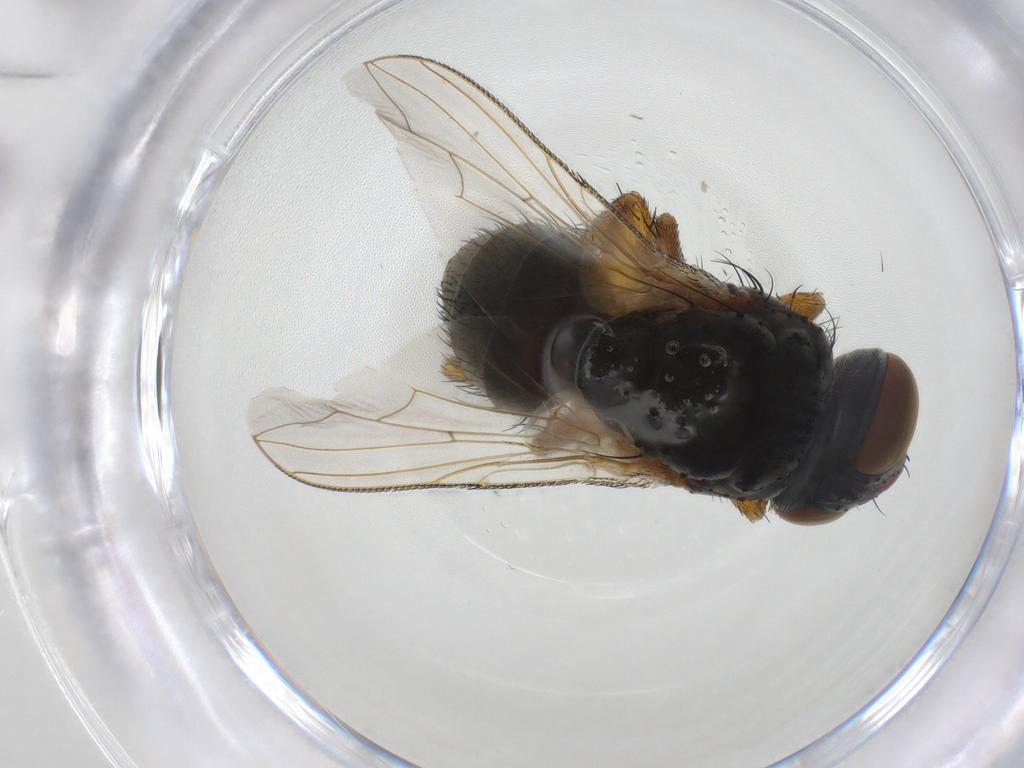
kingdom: Animalia
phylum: Arthropoda
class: Insecta
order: Diptera
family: Sarcophagidae
